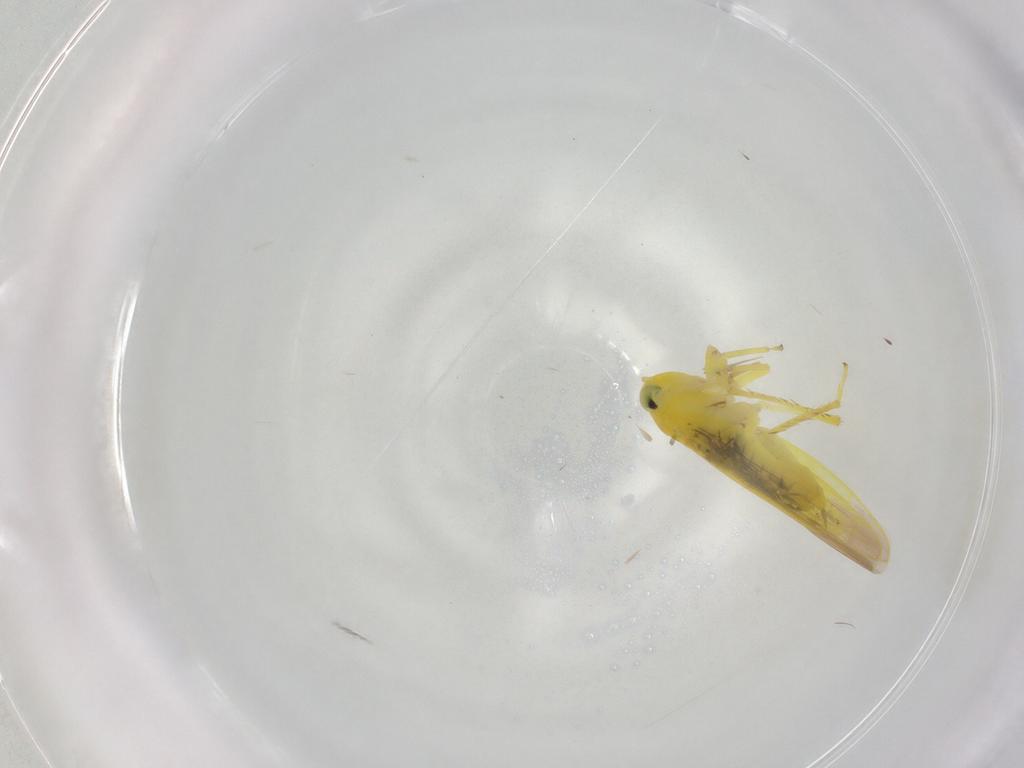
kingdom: Animalia
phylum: Arthropoda
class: Insecta
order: Hemiptera
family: Cicadellidae
